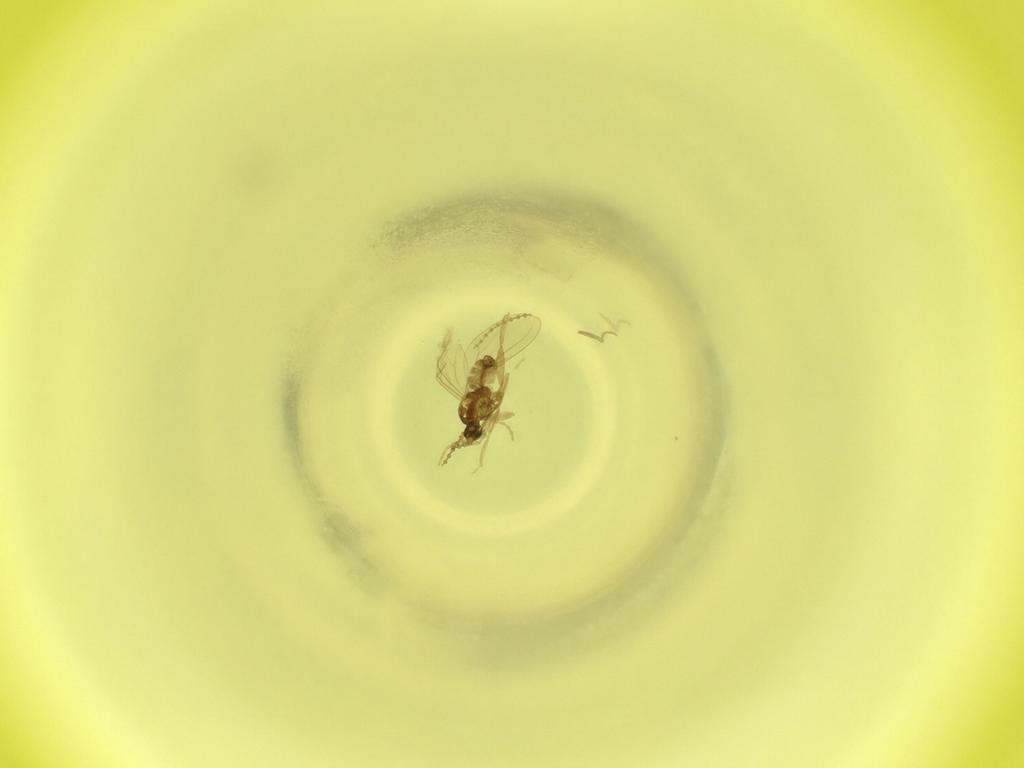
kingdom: Animalia
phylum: Arthropoda
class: Insecta
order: Diptera
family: Cecidomyiidae
